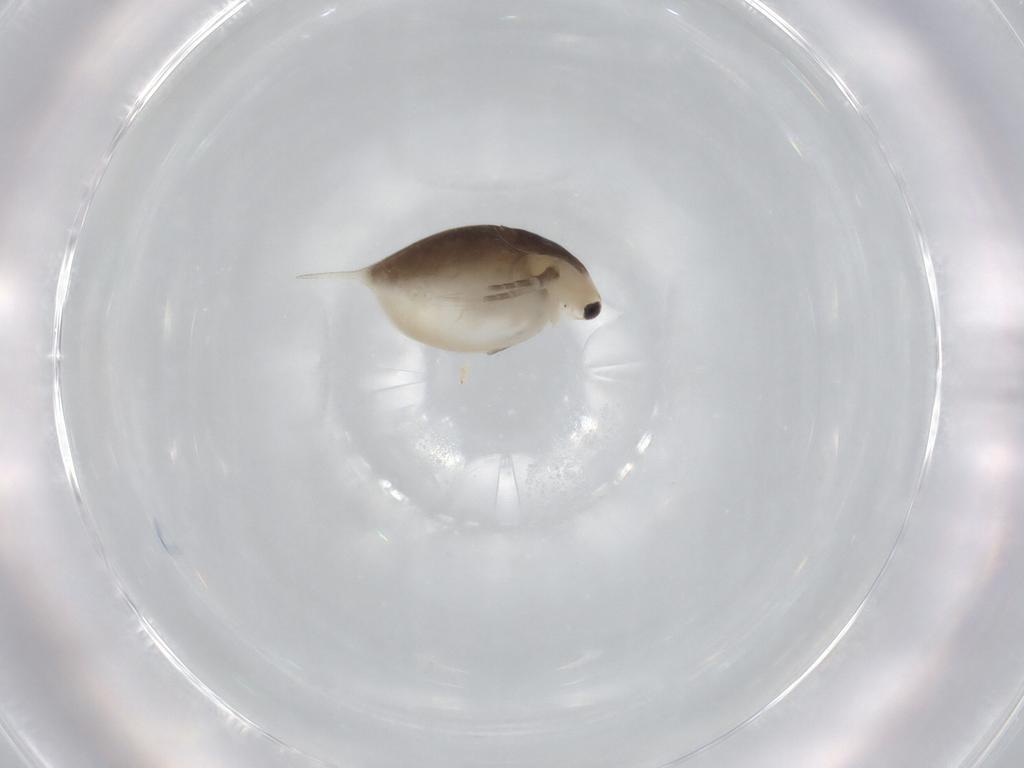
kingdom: Animalia
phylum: Arthropoda
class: Branchiopoda
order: Diplostraca
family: Daphniidae
